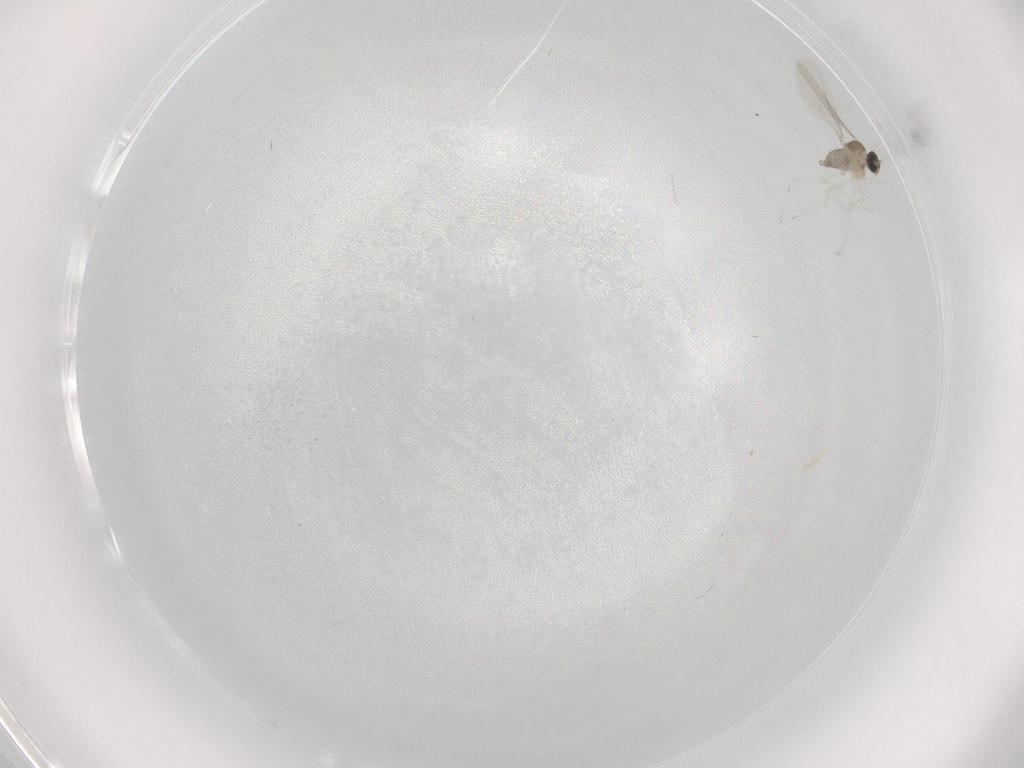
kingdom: Animalia
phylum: Arthropoda
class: Insecta
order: Diptera
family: Cecidomyiidae
